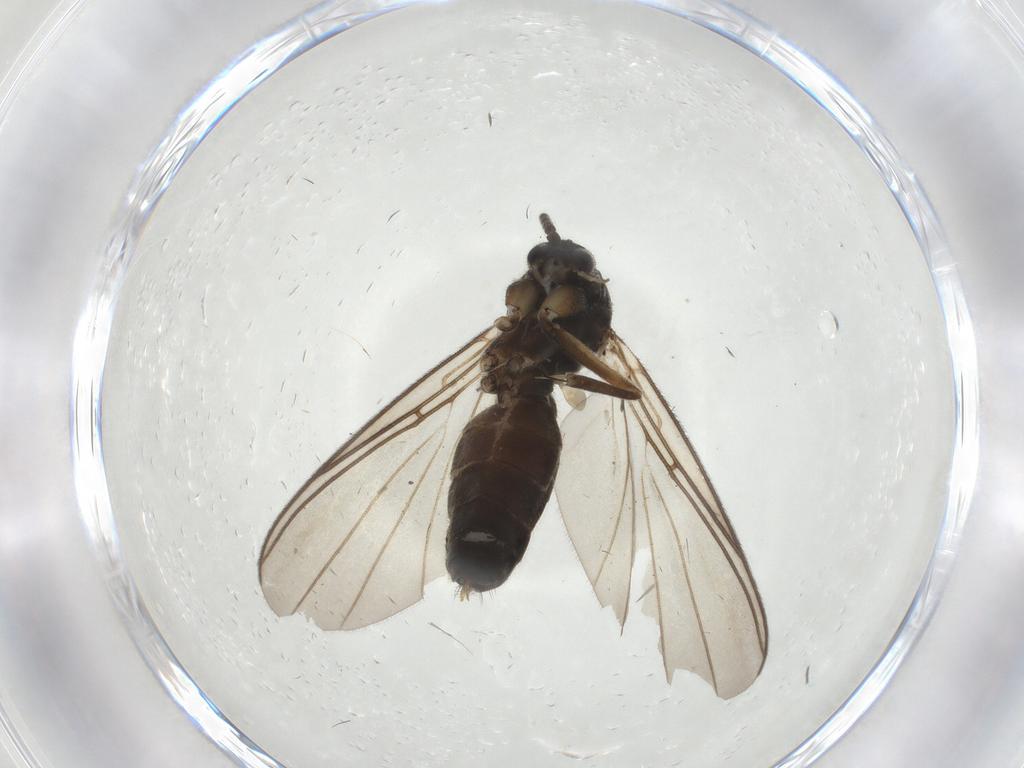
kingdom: Animalia
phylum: Arthropoda
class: Insecta
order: Diptera
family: Mycetophilidae
